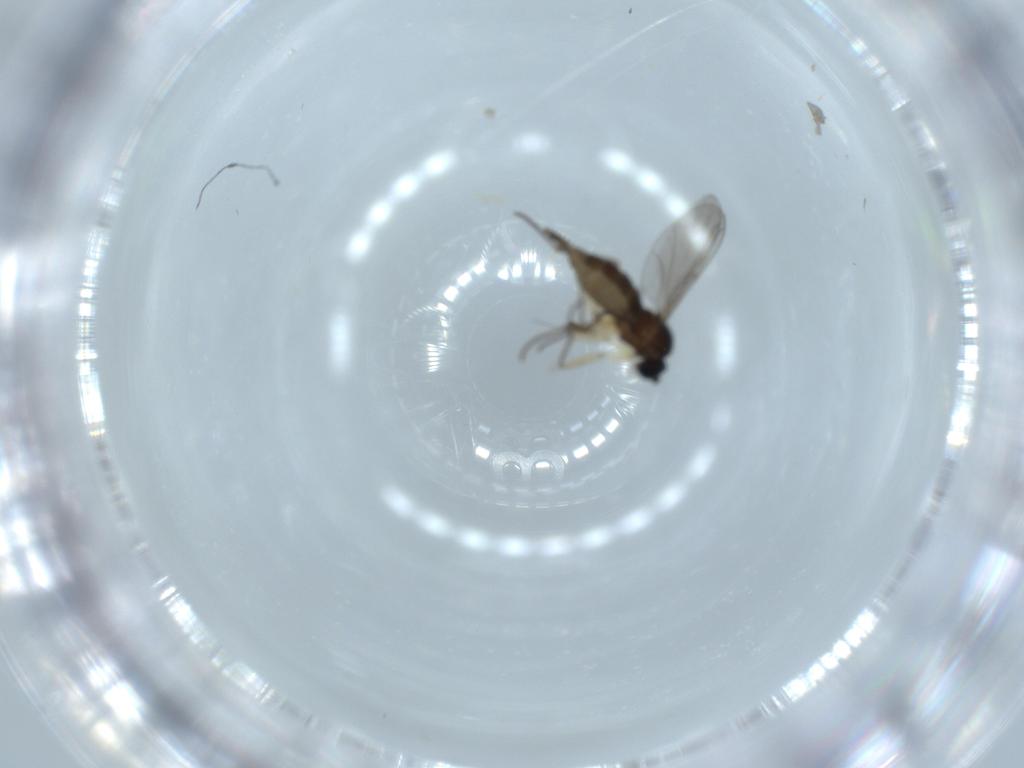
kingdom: Animalia
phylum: Arthropoda
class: Insecta
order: Diptera
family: Sciaridae
